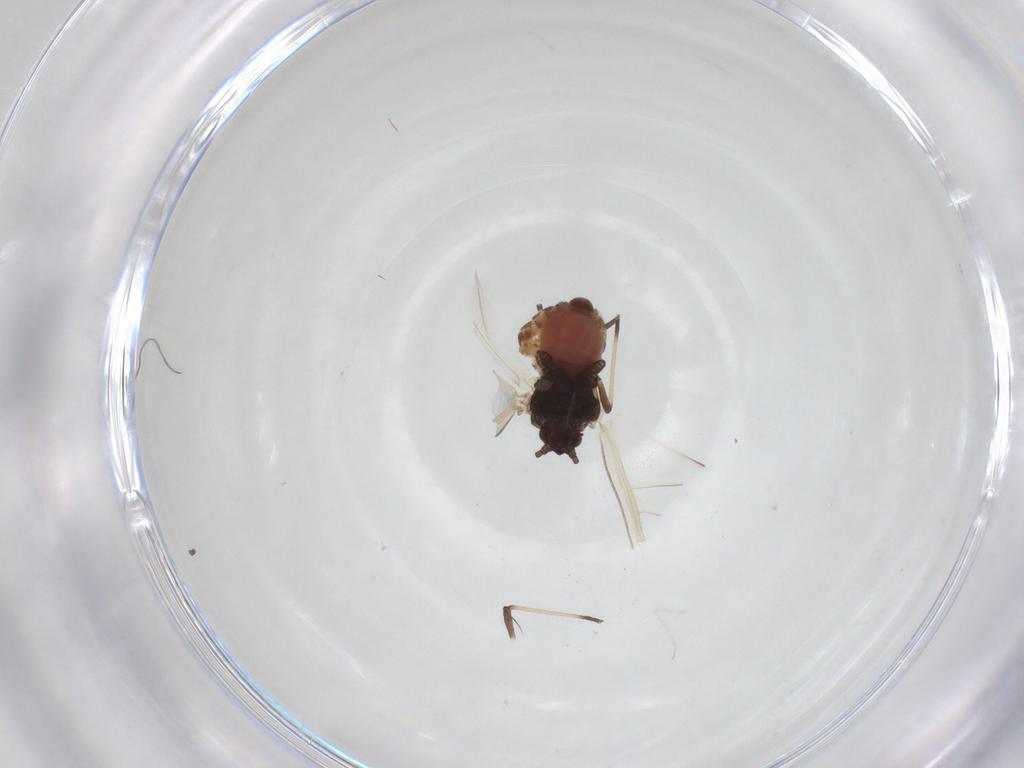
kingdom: Animalia
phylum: Arthropoda
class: Insecta
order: Hemiptera
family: Aphididae
